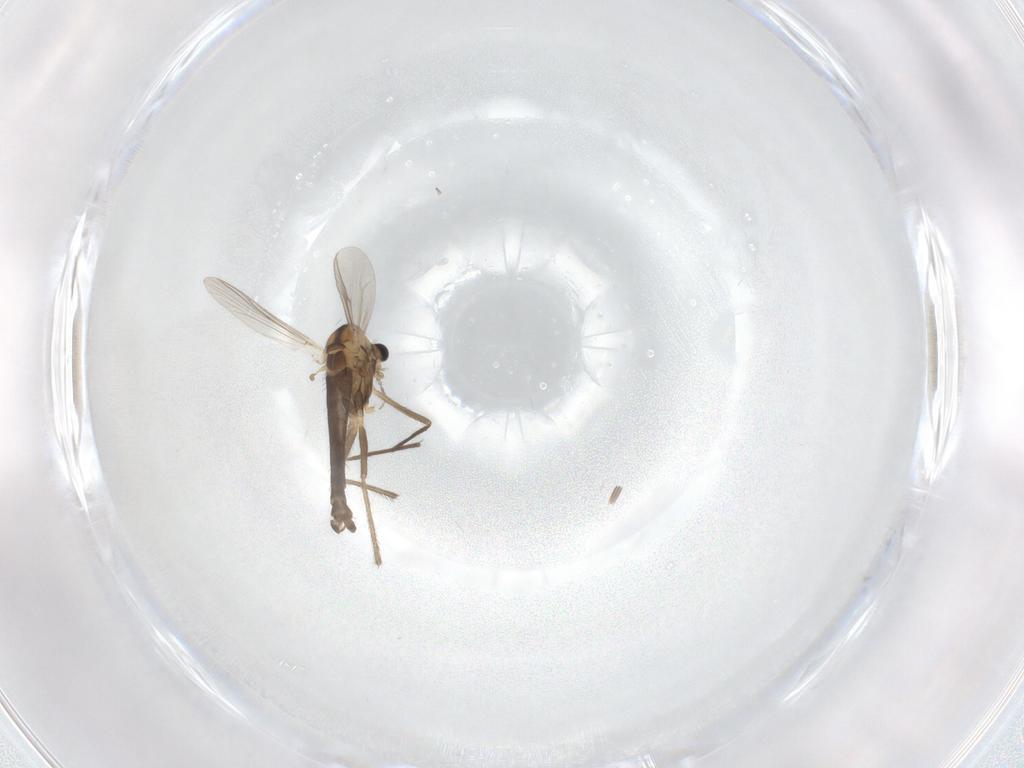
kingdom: Animalia
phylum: Arthropoda
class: Insecta
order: Diptera
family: Chironomidae
